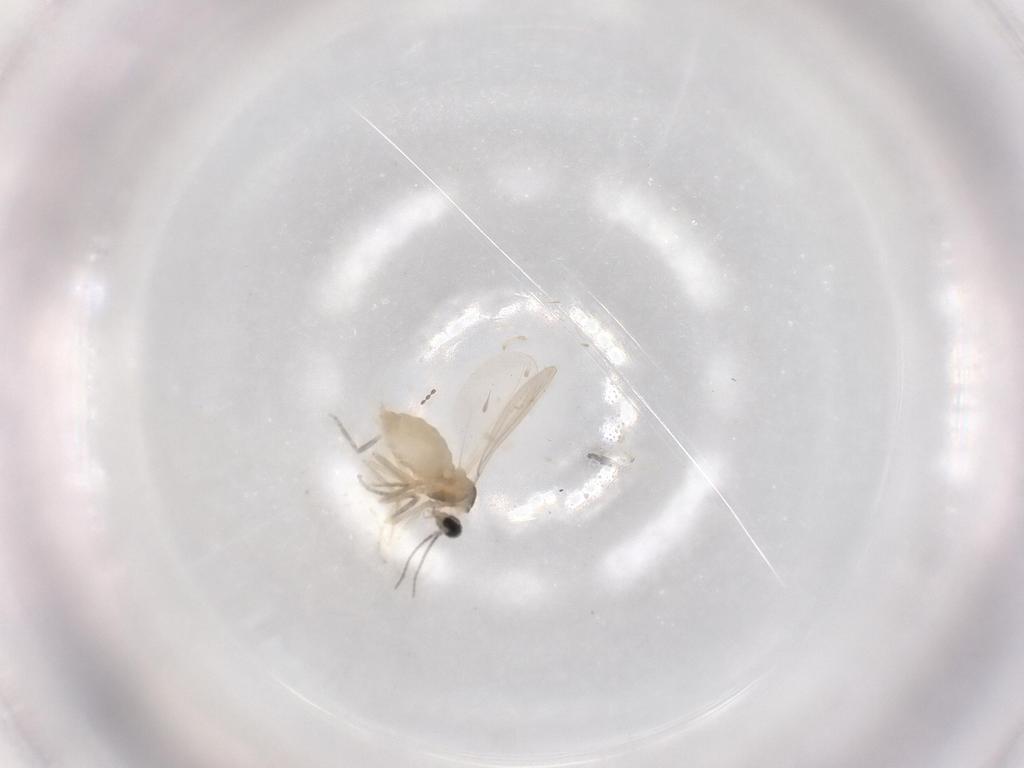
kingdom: Animalia
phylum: Arthropoda
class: Insecta
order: Diptera
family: Cecidomyiidae
